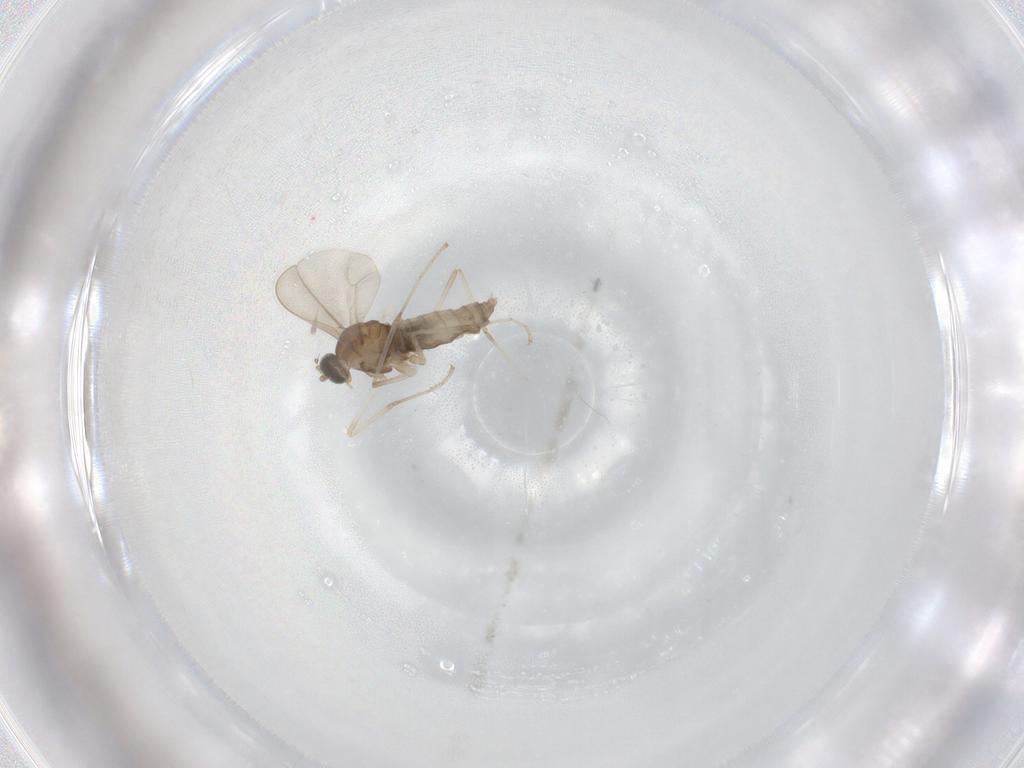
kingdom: Animalia
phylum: Arthropoda
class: Insecta
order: Diptera
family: Cecidomyiidae
